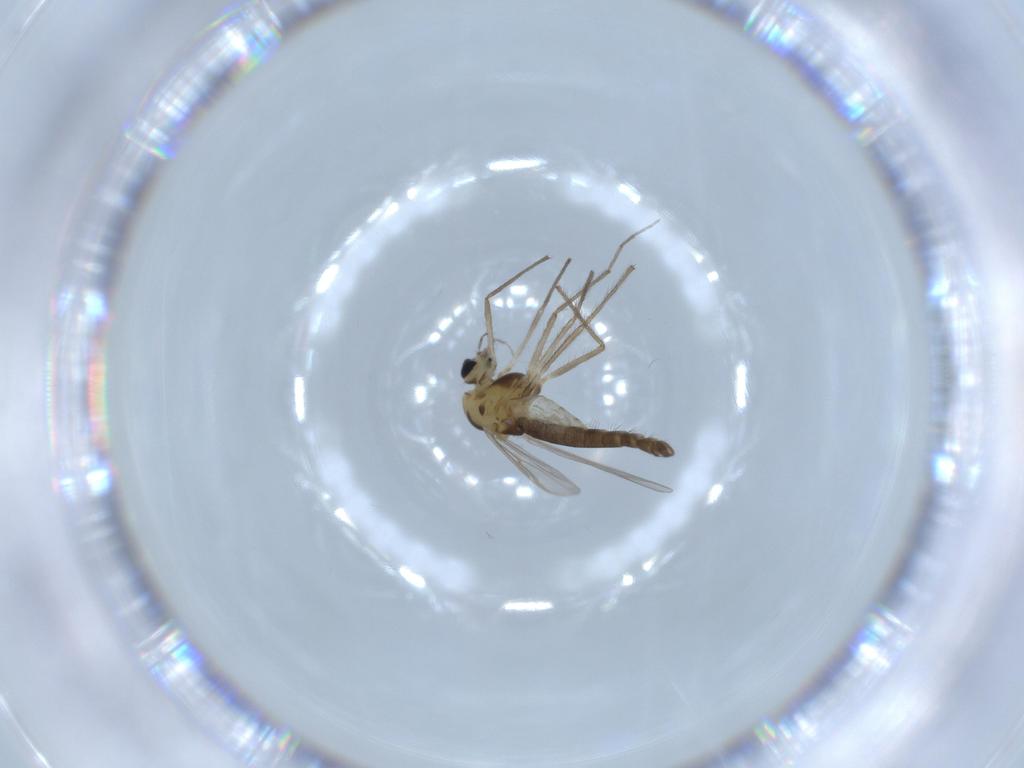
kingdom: Animalia
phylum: Arthropoda
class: Insecta
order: Diptera
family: Chironomidae
